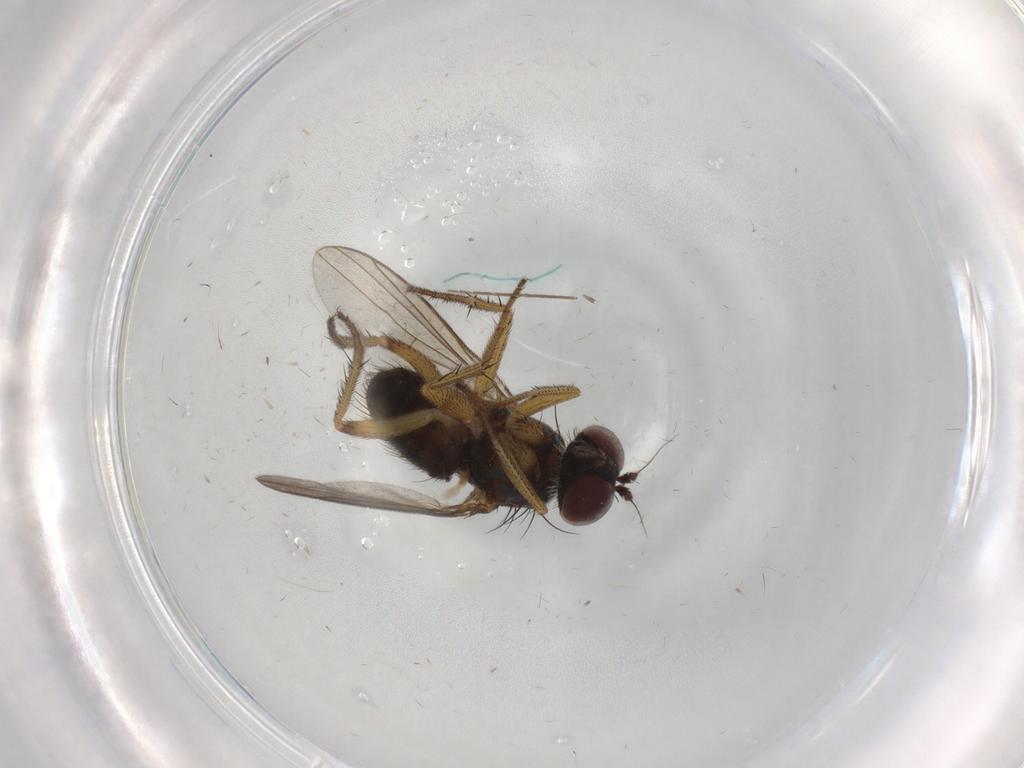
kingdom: Animalia
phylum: Arthropoda
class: Insecta
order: Diptera
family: Dolichopodidae
